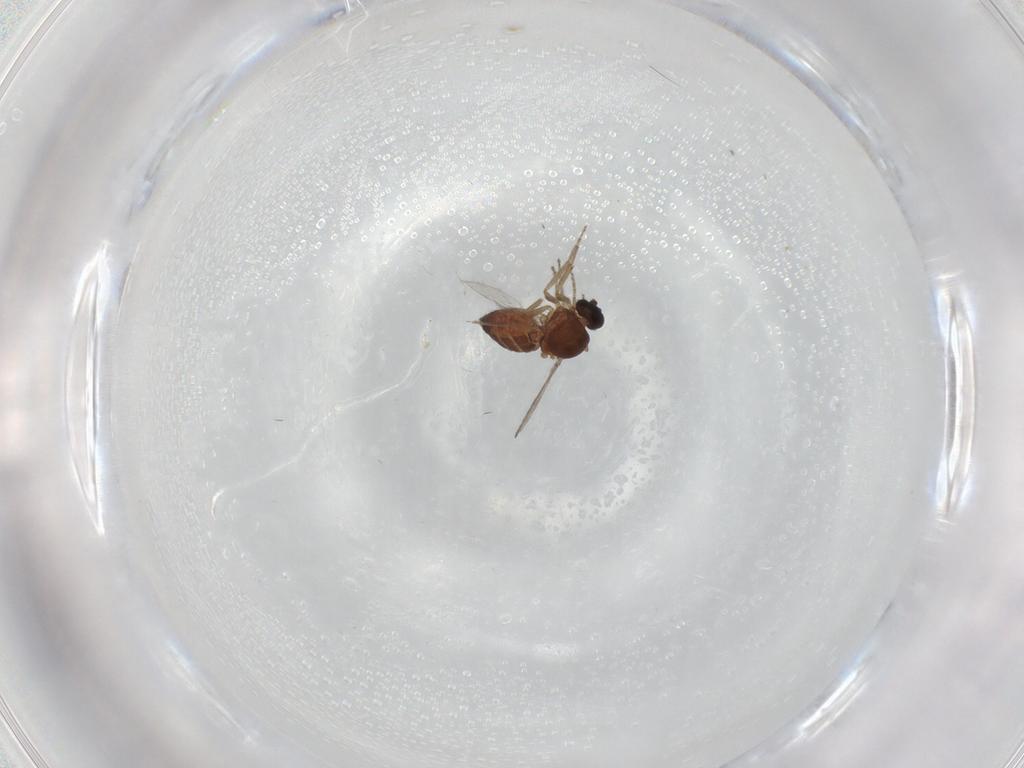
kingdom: Animalia
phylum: Arthropoda
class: Insecta
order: Diptera
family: Ceratopogonidae
